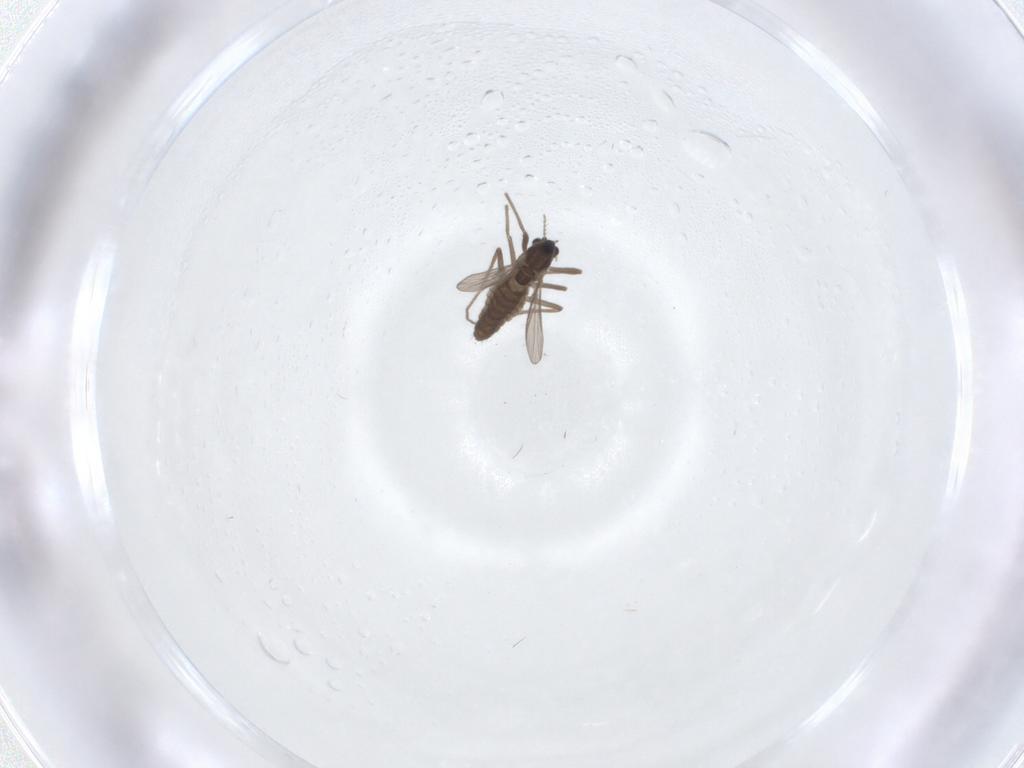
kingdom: Animalia
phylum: Arthropoda
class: Insecta
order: Diptera
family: Chironomidae
